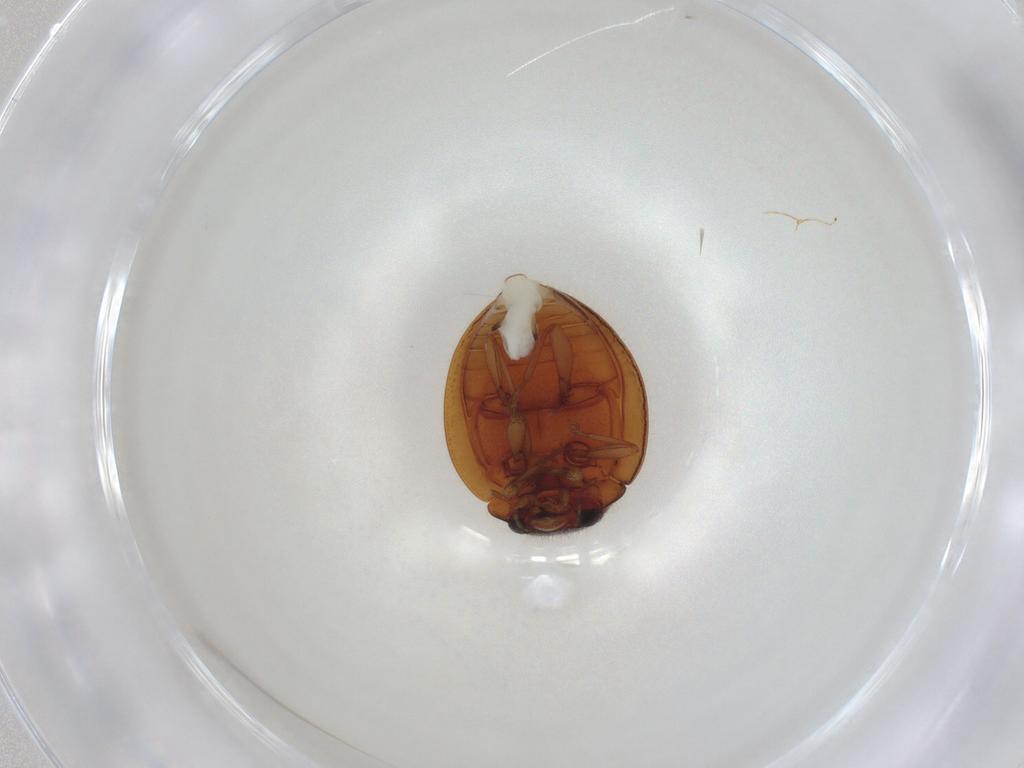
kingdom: Animalia
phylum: Arthropoda
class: Insecta
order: Coleoptera
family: Coccinellidae
